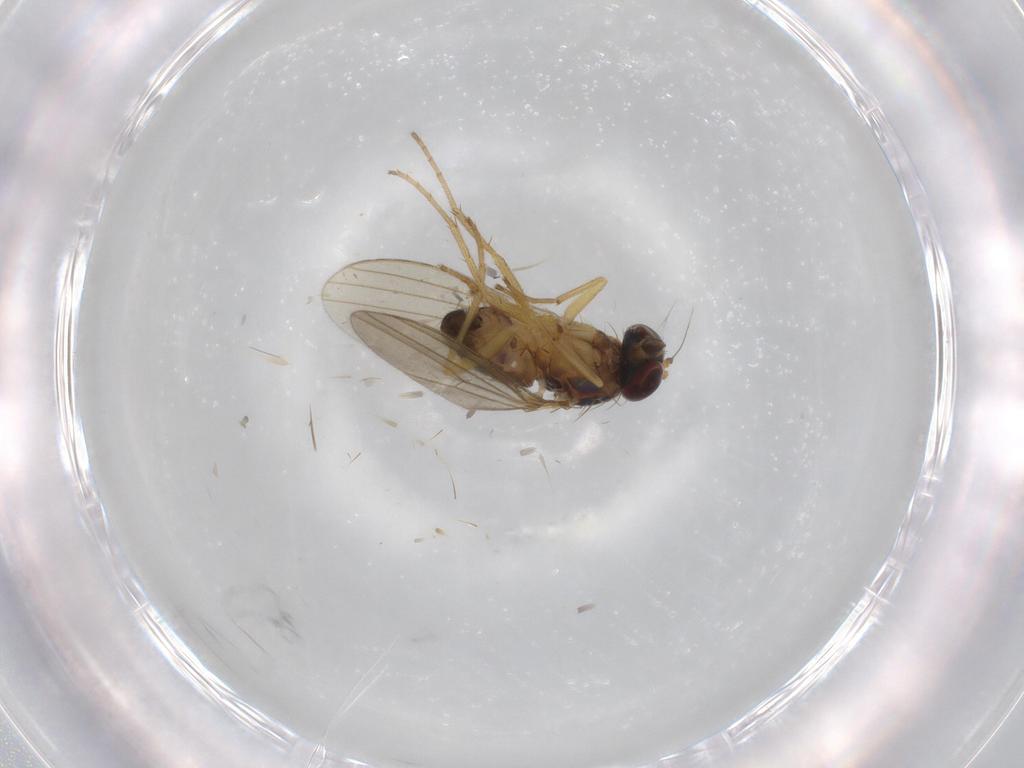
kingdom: Animalia
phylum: Arthropoda
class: Insecta
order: Diptera
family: Dolichopodidae
